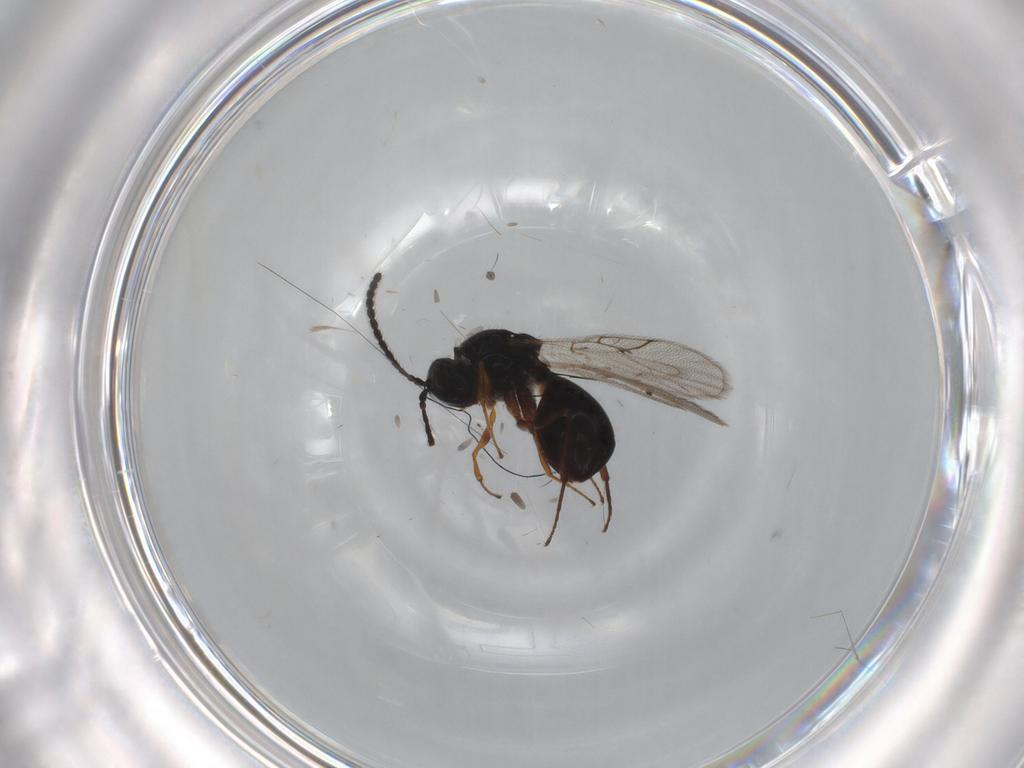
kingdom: Animalia
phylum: Arthropoda
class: Insecta
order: Hymenoptera
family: Figitidae
